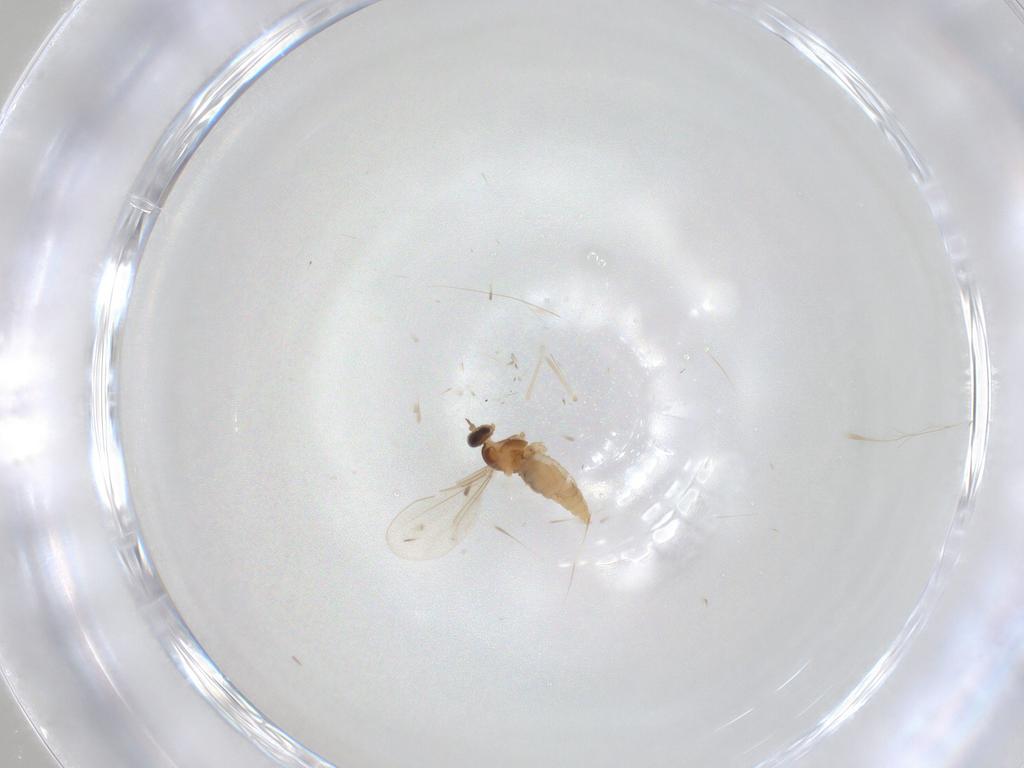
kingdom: Animalia
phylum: Arthropoda
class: Insecta
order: Diptera
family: Cecidomyiidae
